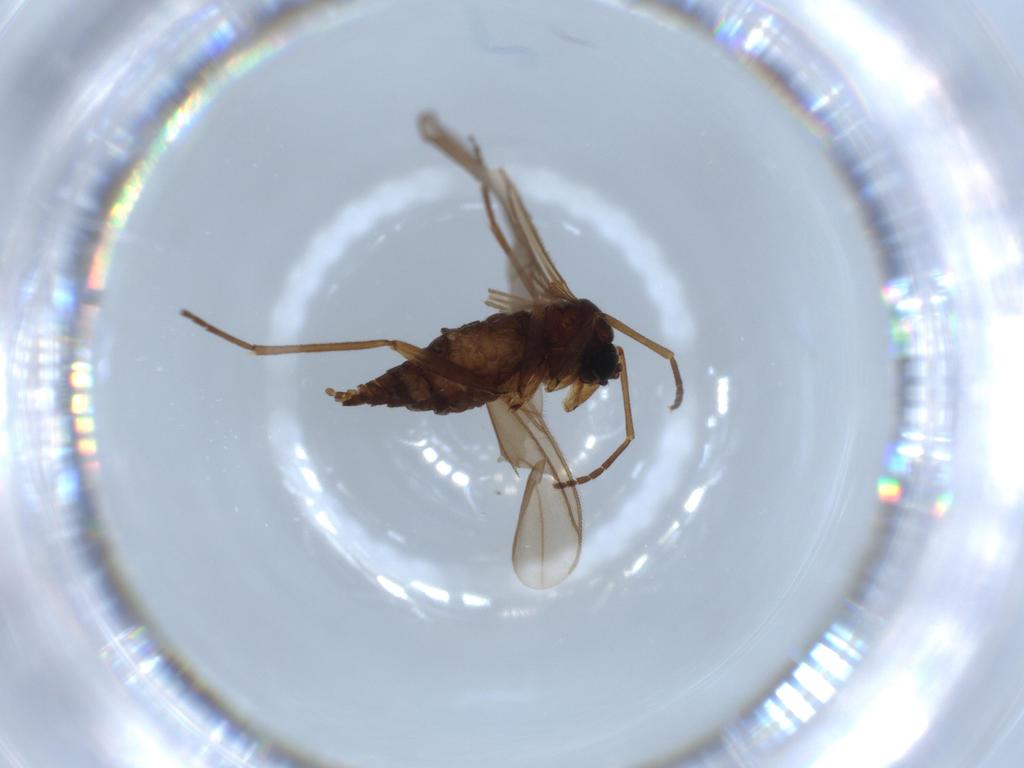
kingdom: Animalia
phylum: Arthropoda
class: Insecta
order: Diptera
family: Sciaridae
